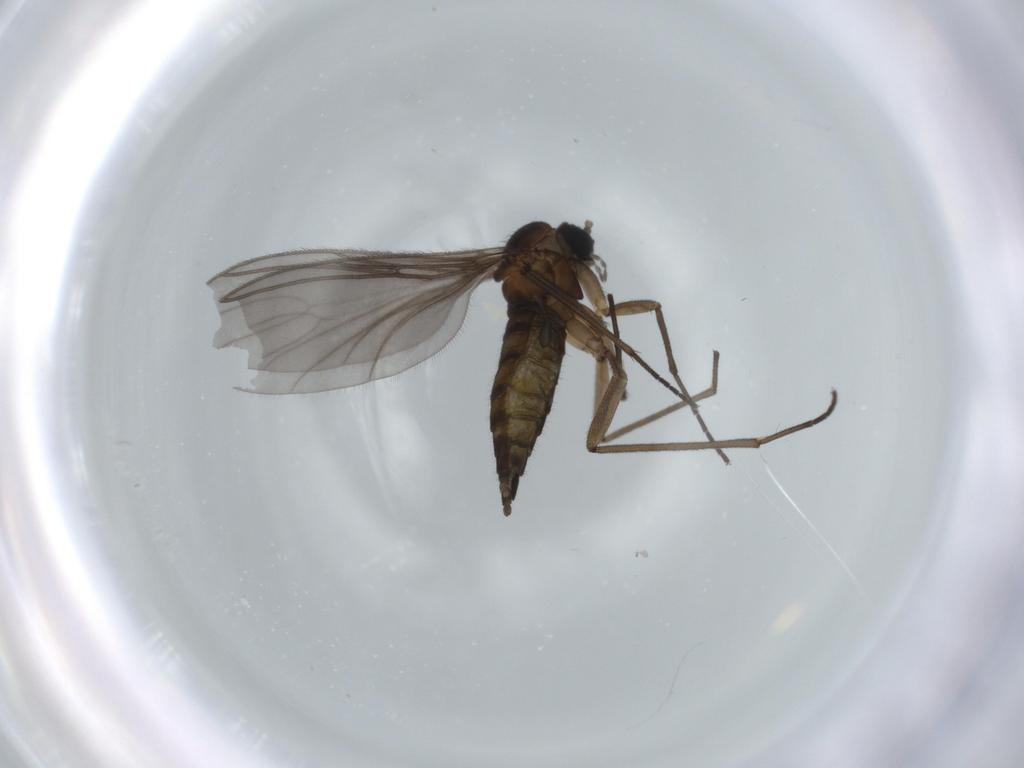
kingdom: Animalia
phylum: Arthropoda
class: Insecta
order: Diptera
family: Sciaridae
